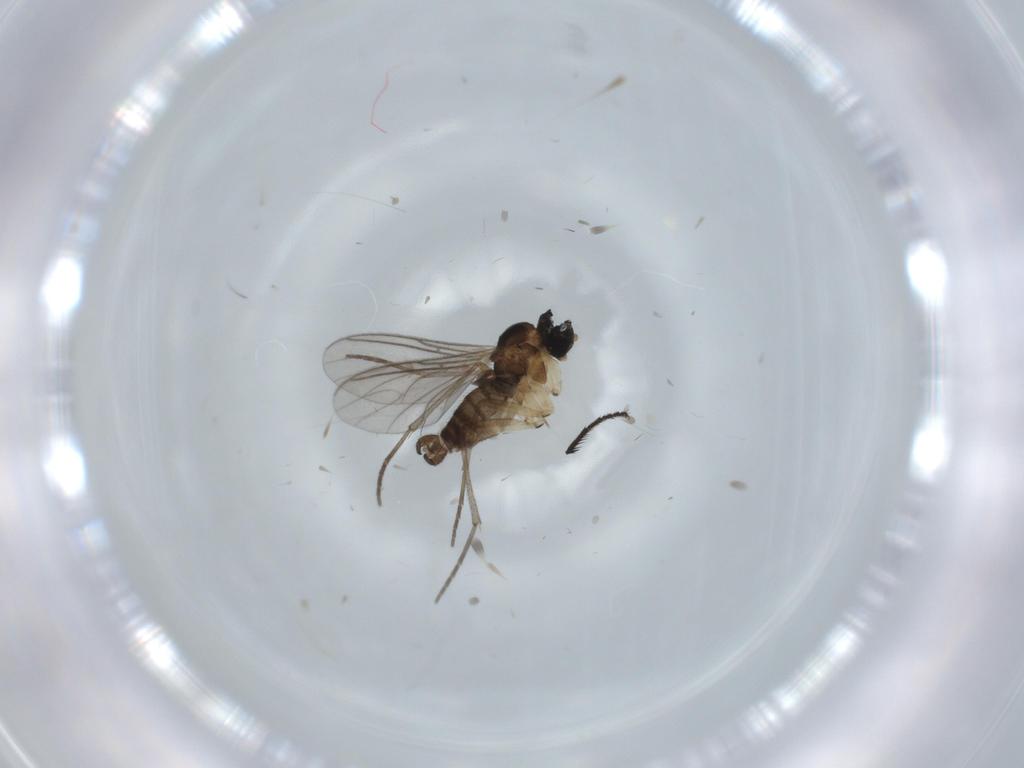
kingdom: Animalia
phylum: Arthropoda
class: Insecta
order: Diptera
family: Sciaridae
